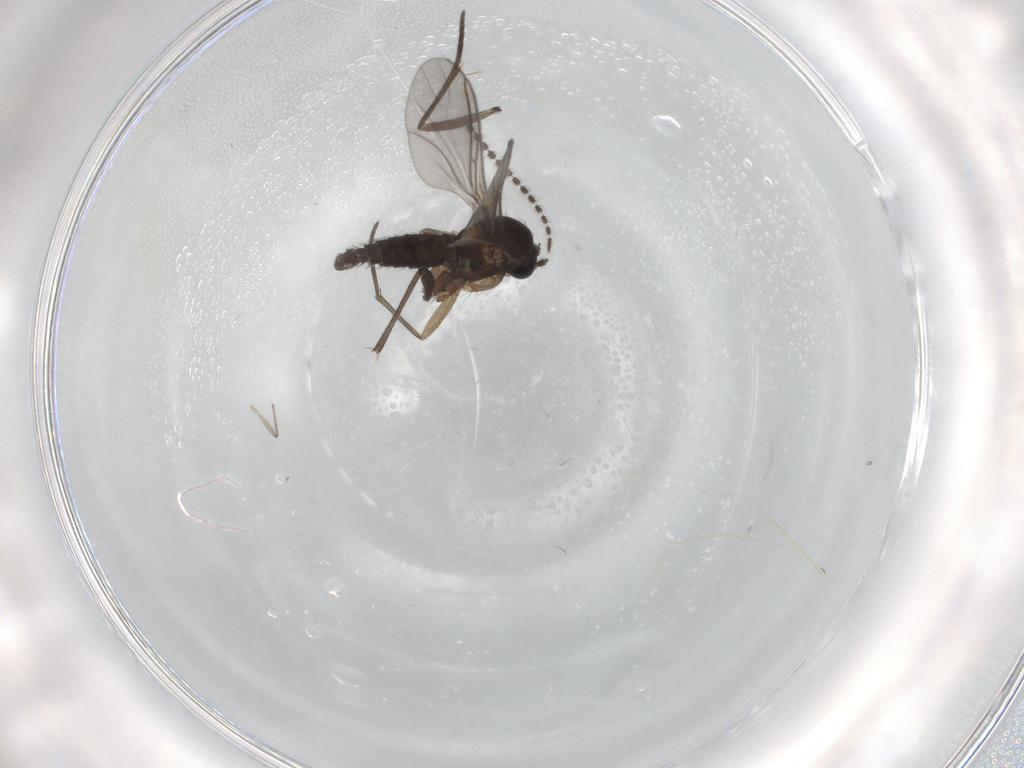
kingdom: Animalia
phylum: Arthropoda
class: Insecta
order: Diptera
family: Sciaridae
